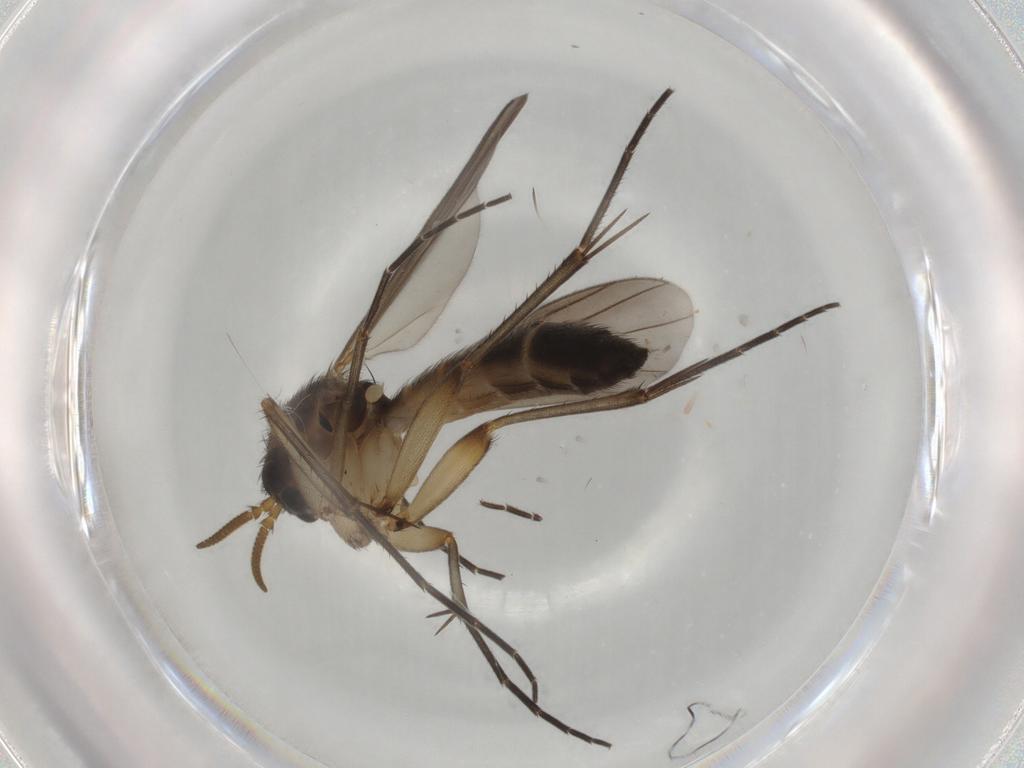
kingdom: Animalia
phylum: Arthropoda
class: Insecta
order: Diptera
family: Mycetophilidae
